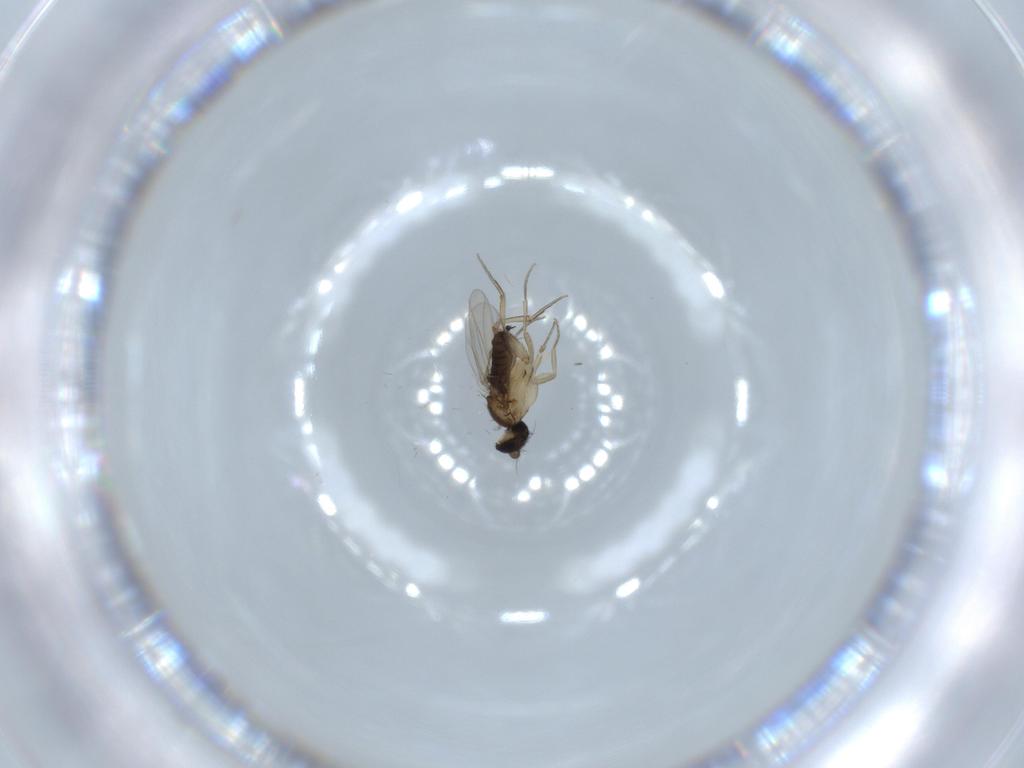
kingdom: Animalia
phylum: Arthropoda
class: Insecta
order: Diptera
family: Phoridae
